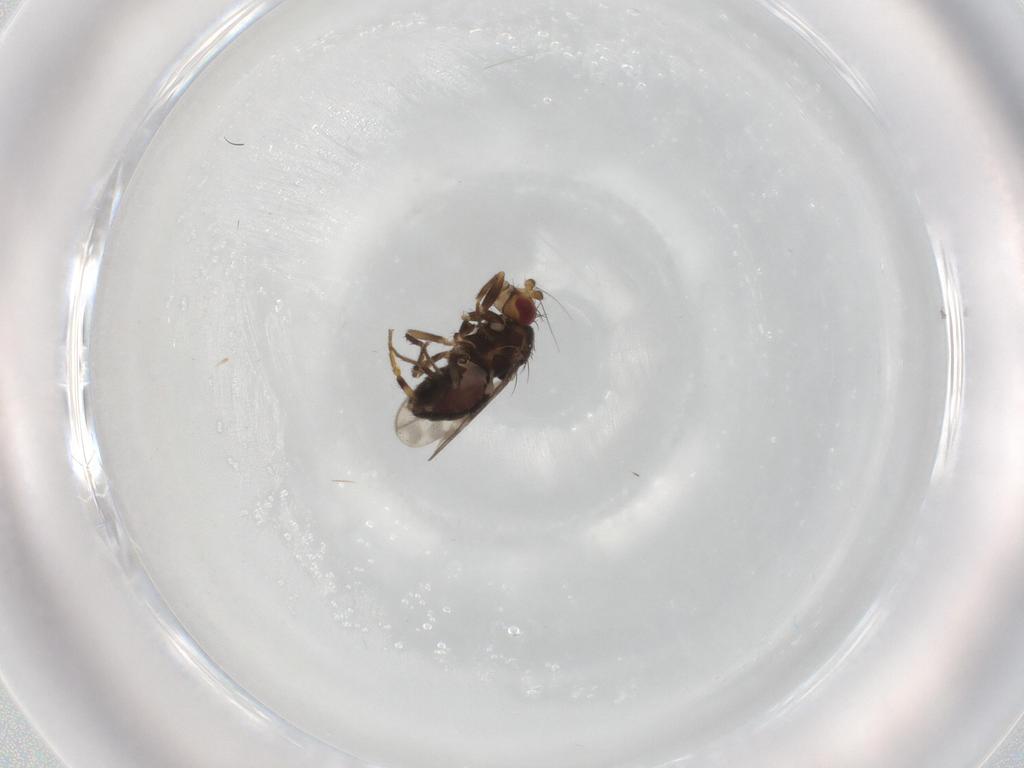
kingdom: Animalia
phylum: Arthropoda
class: Insecta
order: Diptera
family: Sphaeroceridae
